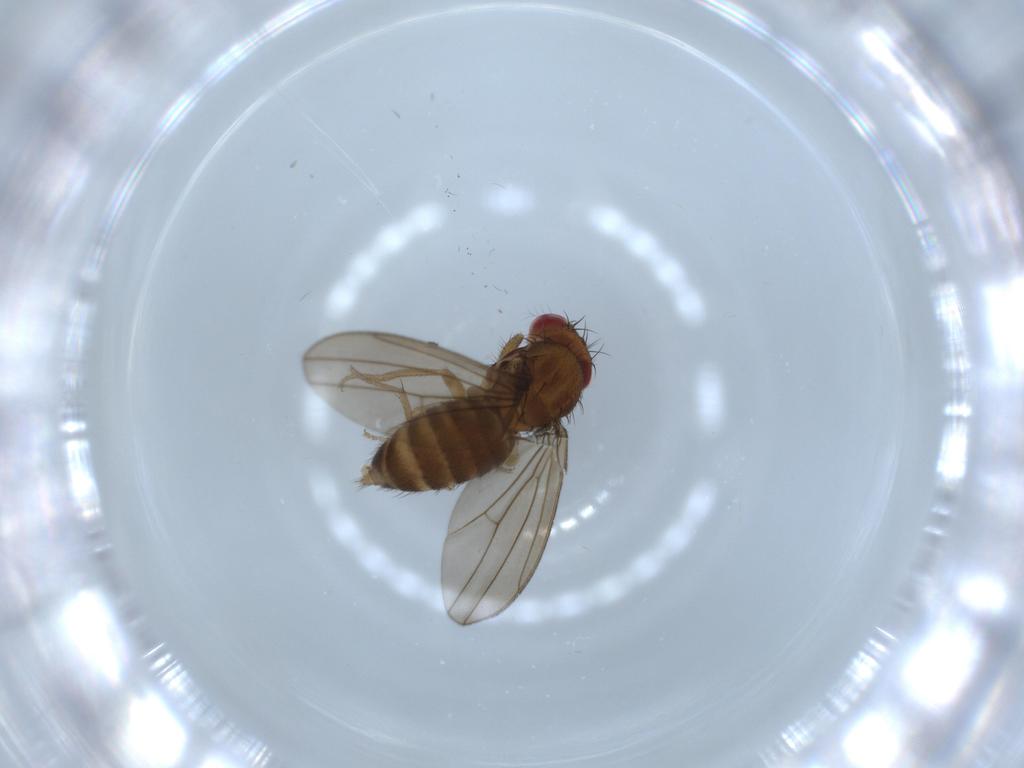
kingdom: Animalia
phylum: Arthropoda
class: Insecta
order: Diptera
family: Drosophilidae
